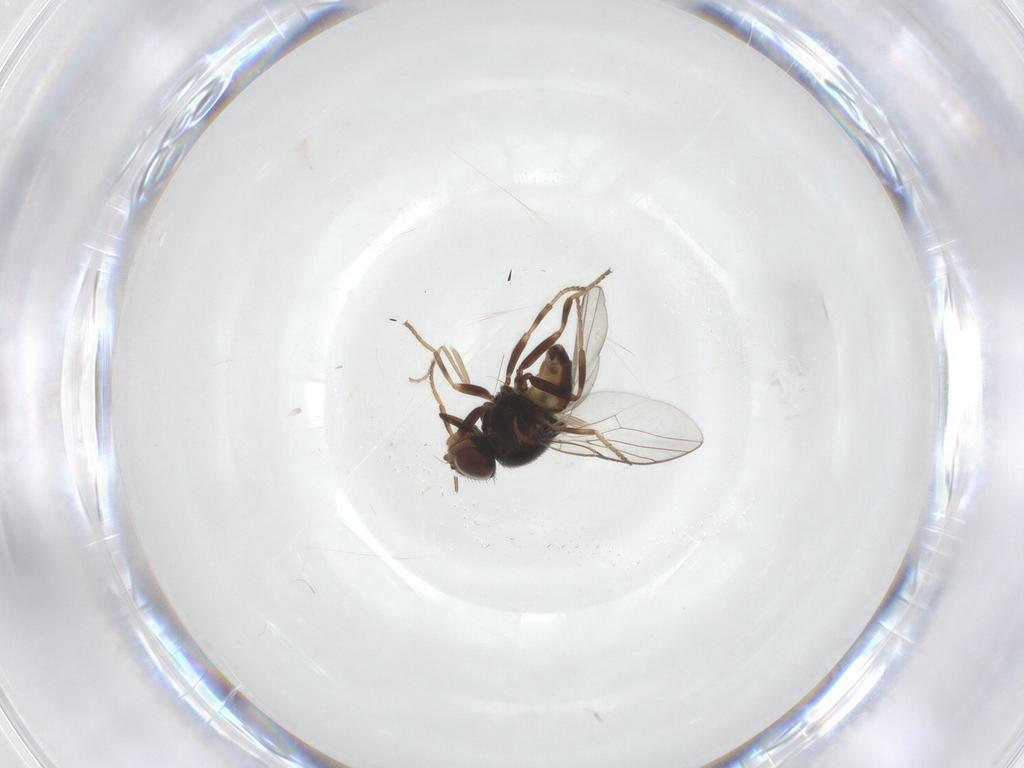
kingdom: Animalia
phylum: Arthropoda
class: Insecta
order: Diptera
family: Chloropidae
